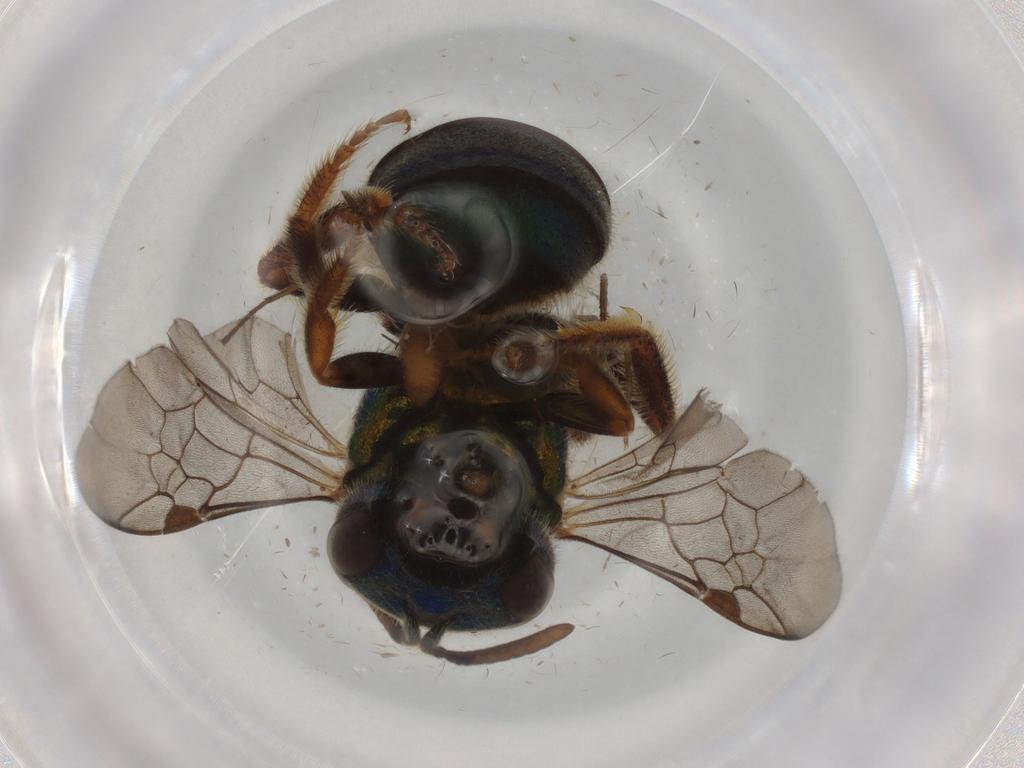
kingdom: Animalia
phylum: Arthropoda
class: Insecta
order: Hymenoptera
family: Halictidae
